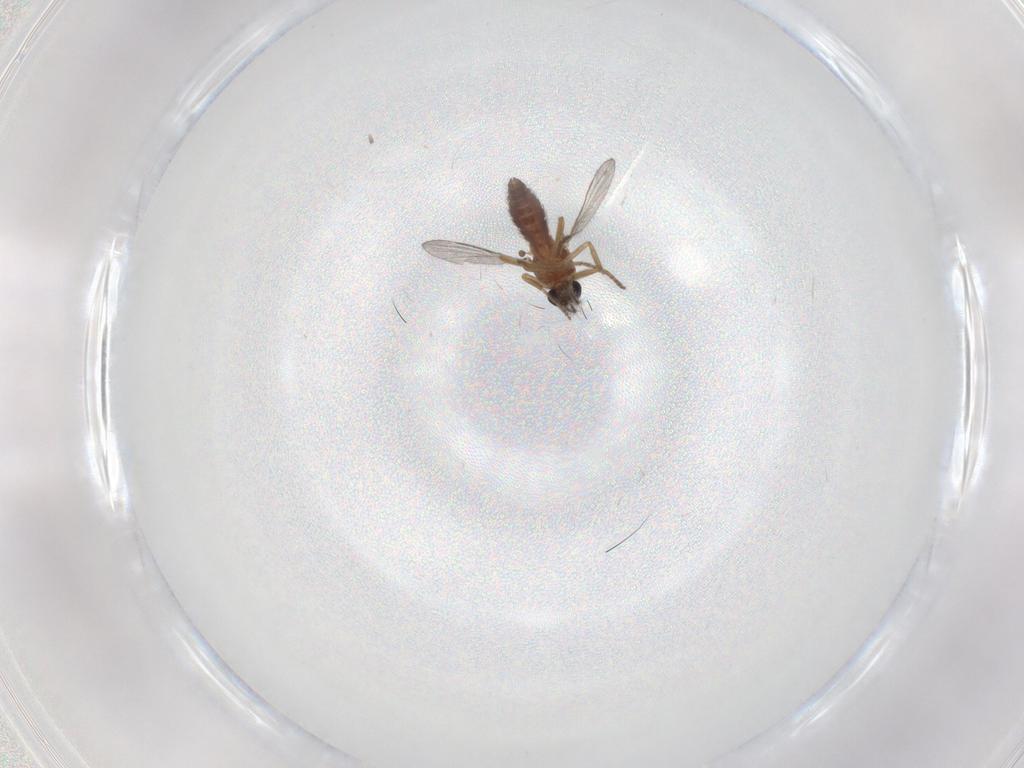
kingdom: Animalia
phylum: Arthropoda
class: Insecta
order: Diptera
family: Ceratopogonidae
